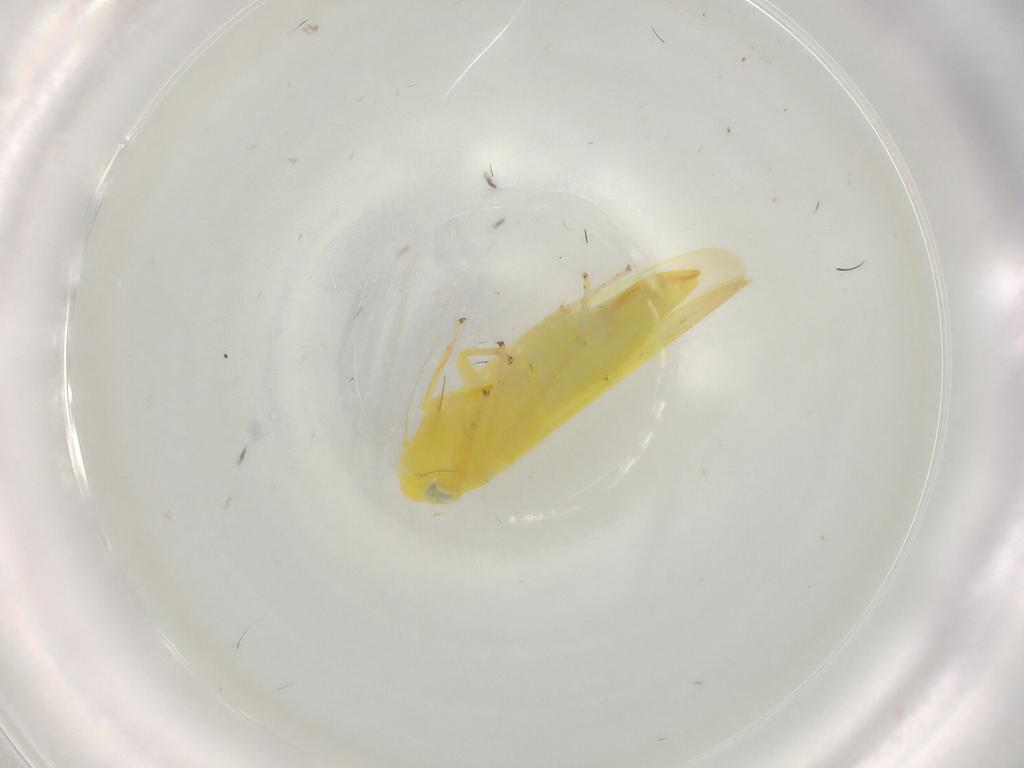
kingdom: Animalia
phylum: Arthropoda
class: Insecta
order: Hemiptera
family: Cicadellidae
